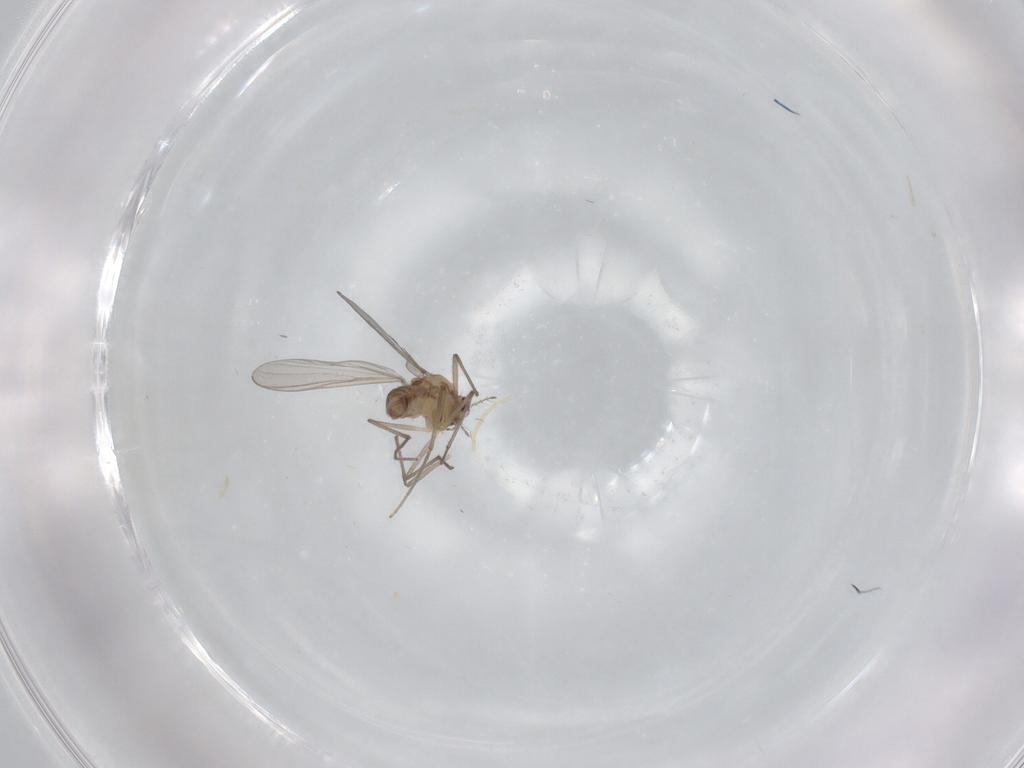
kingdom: Animalia
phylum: Arthropoda
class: Insecta
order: Diptera
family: Chironomidae
